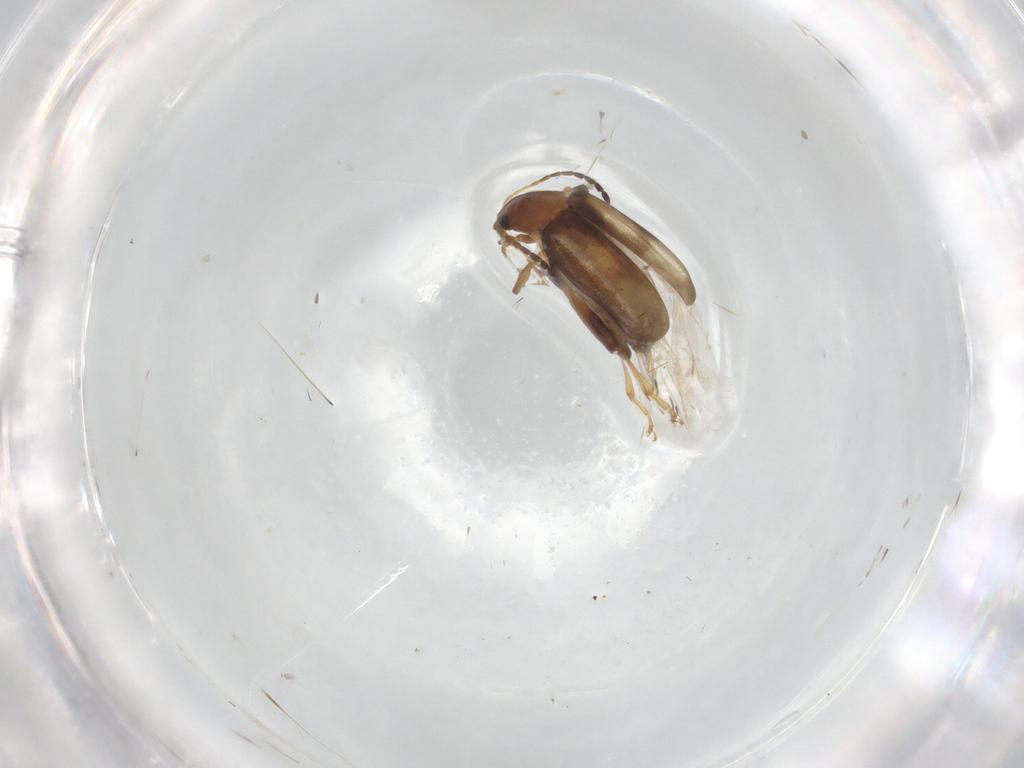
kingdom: Animalia
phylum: Arthropoda
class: Insecta
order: Coleoptera
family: Chrysomelidae
